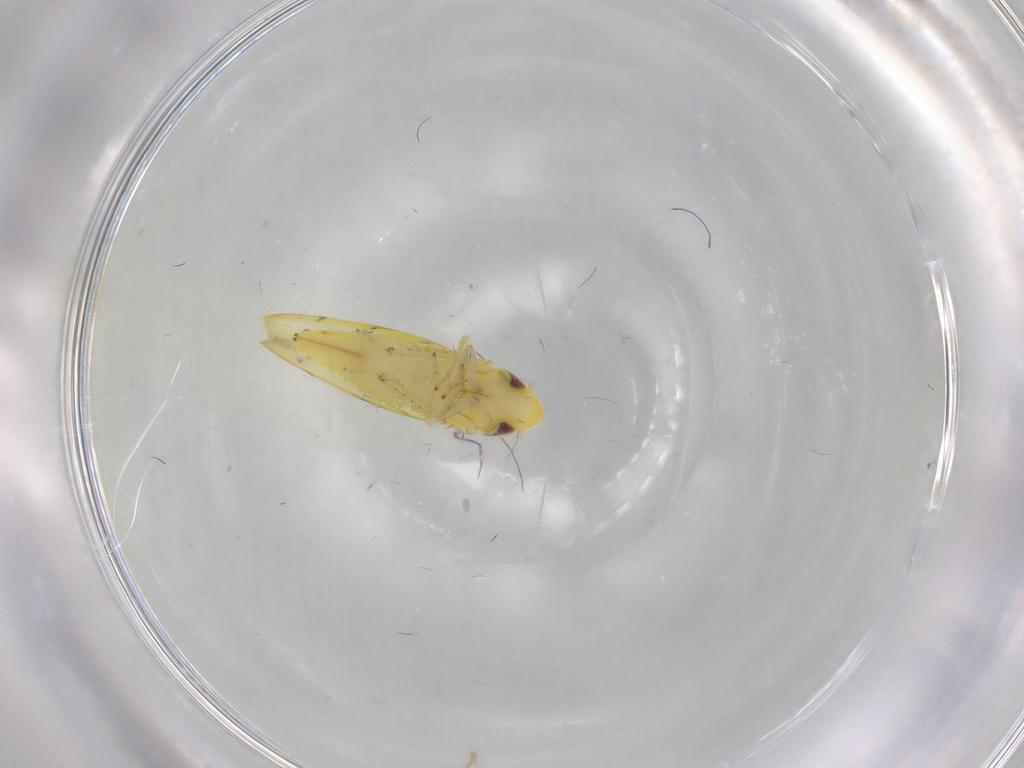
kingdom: Animalia
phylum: Arthropoda
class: Insecta
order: Hemiptera
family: Cicadellidae
